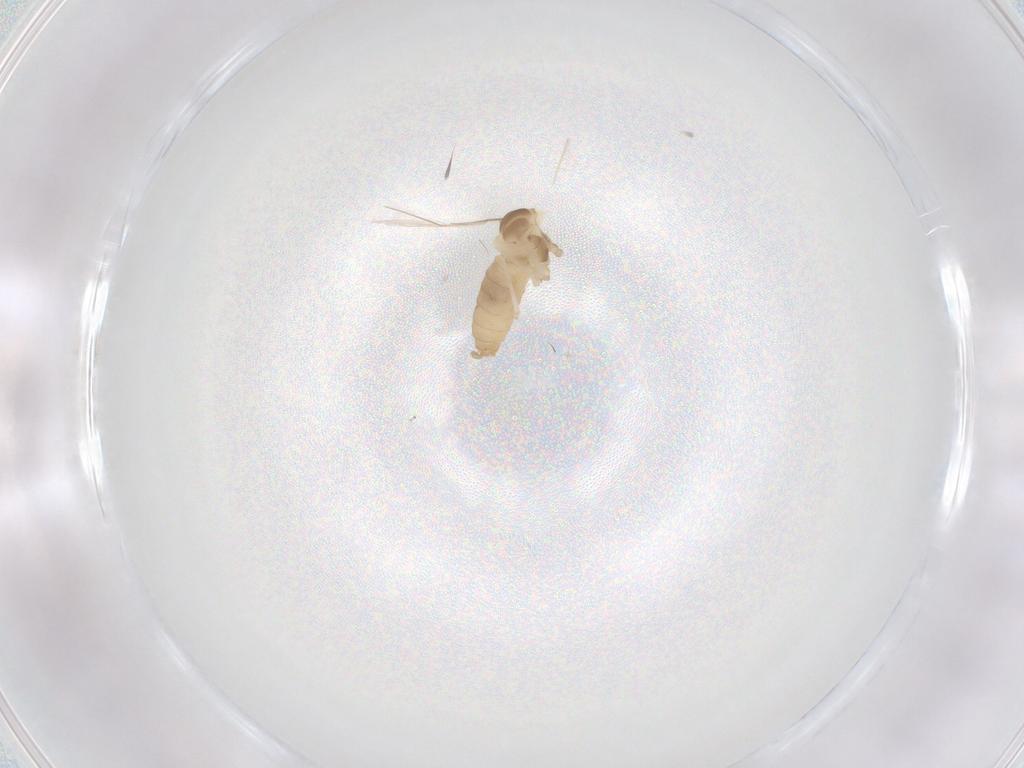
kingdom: Animalia
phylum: Arthropoda
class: Insecta
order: Diptera
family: Cecidomyiidae
